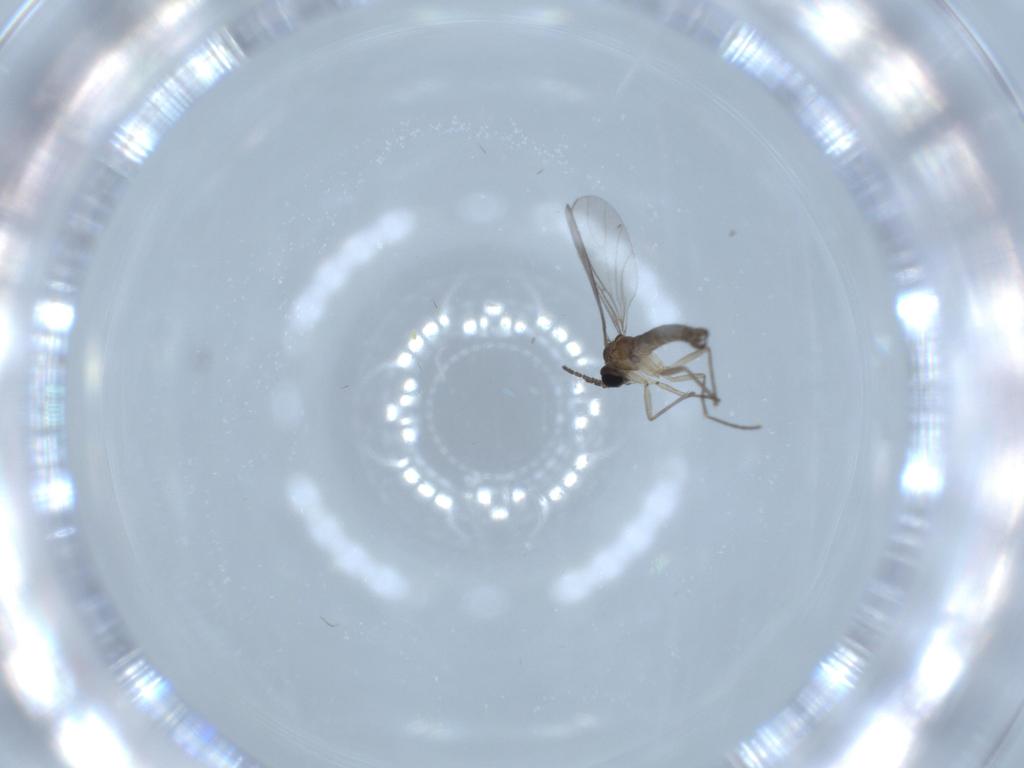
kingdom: Animalia
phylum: Arthropoda
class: Insecta
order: Diptera
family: Sciaridae
